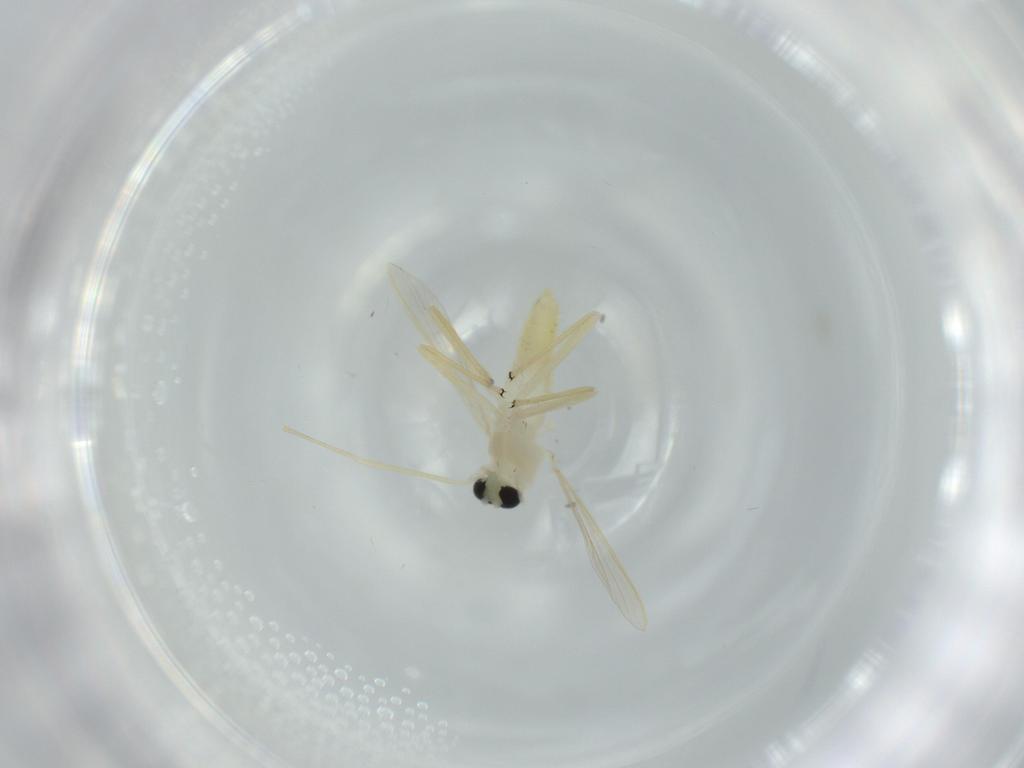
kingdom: Animalia
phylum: Arthropoda
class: Insecta
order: Diptera
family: Chironomidae
